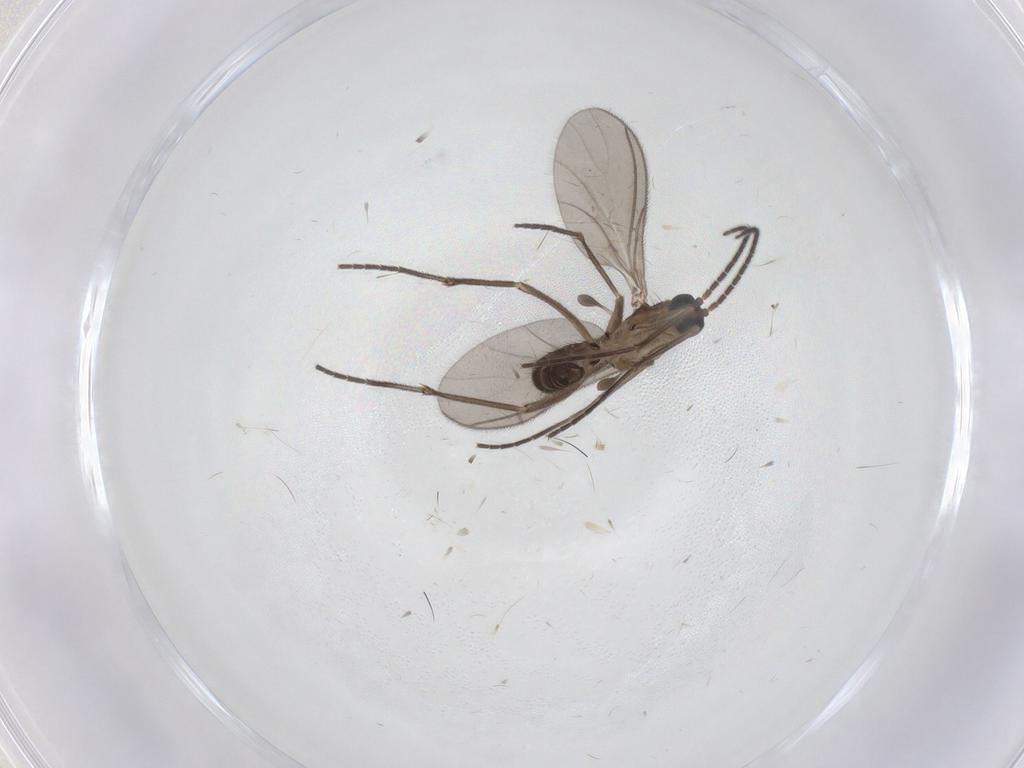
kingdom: Animalia
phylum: Arthropoda
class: Insecta
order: Diptera
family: Sciaridae
